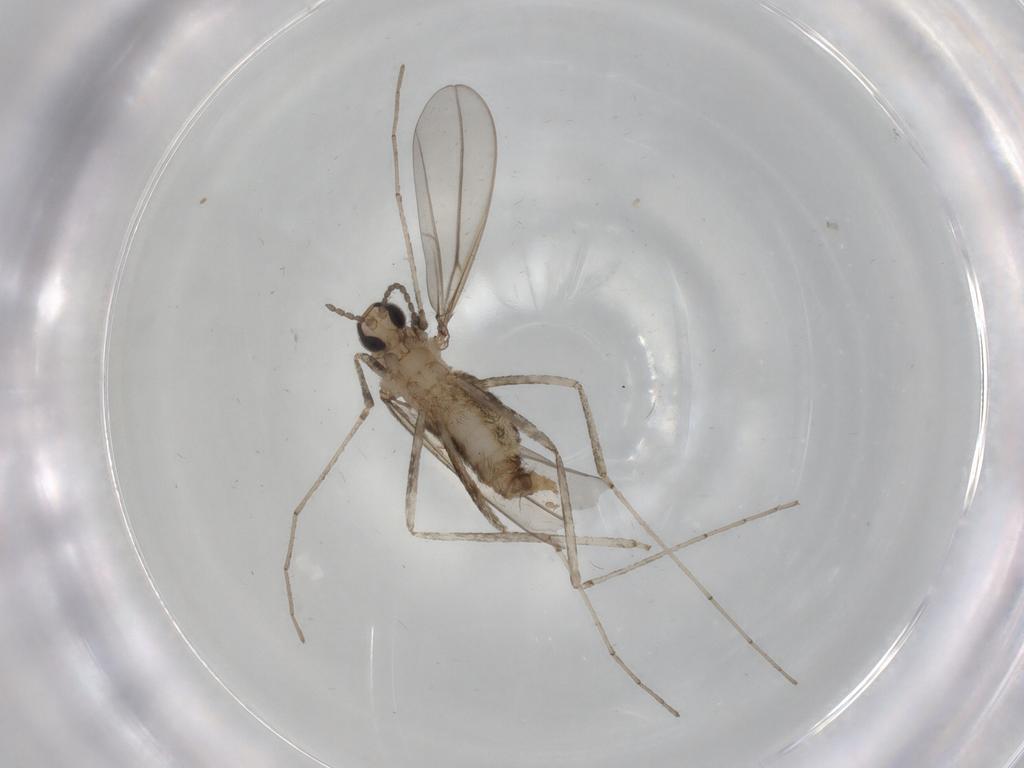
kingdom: Animalia
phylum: Arthropoda
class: Insecta
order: Diptera
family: Cecidomyiidae
